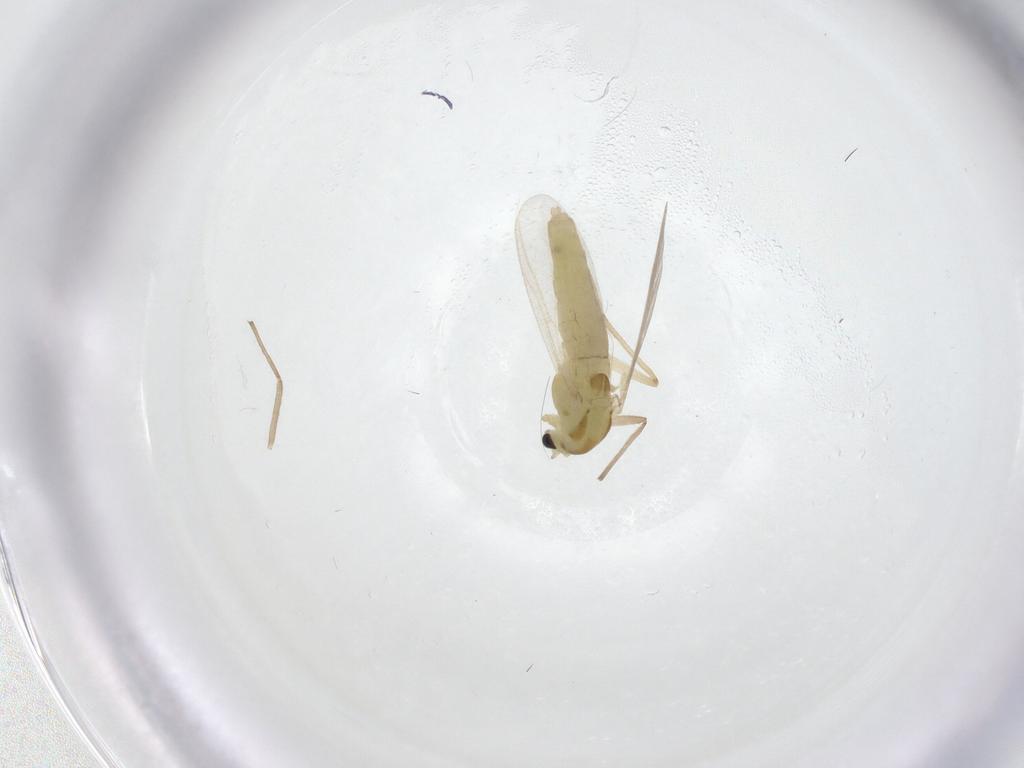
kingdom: Animalia
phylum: Arthropoda
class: Insecta
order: Diptera
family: Chironomidae
